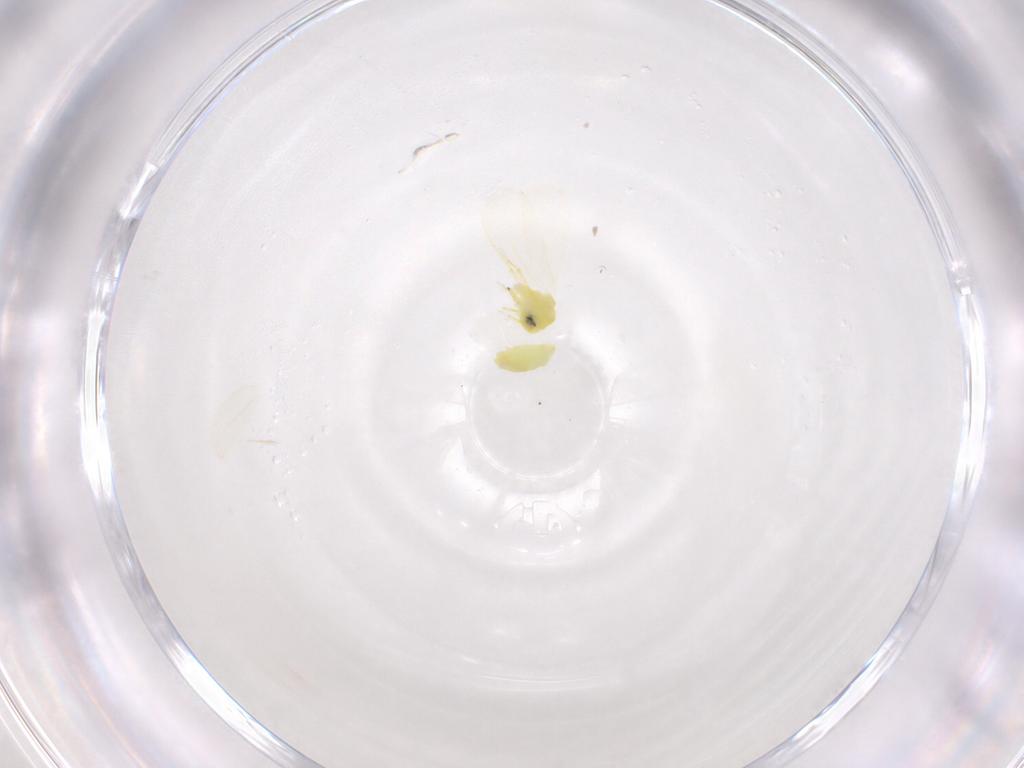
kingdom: Animalia
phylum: Arthropoda
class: Insecta
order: Hemiptera
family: Aleyrodidae
